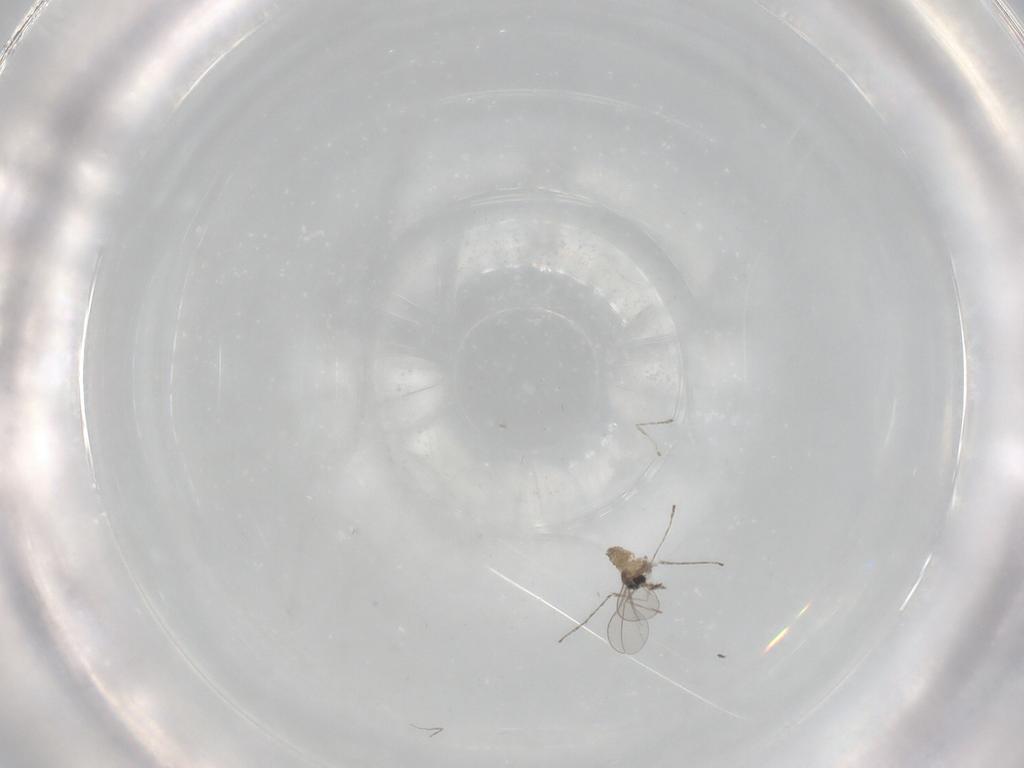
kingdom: Animalia
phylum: Arthropoda
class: Insecta
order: Diptera
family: Cecidomyiidae
